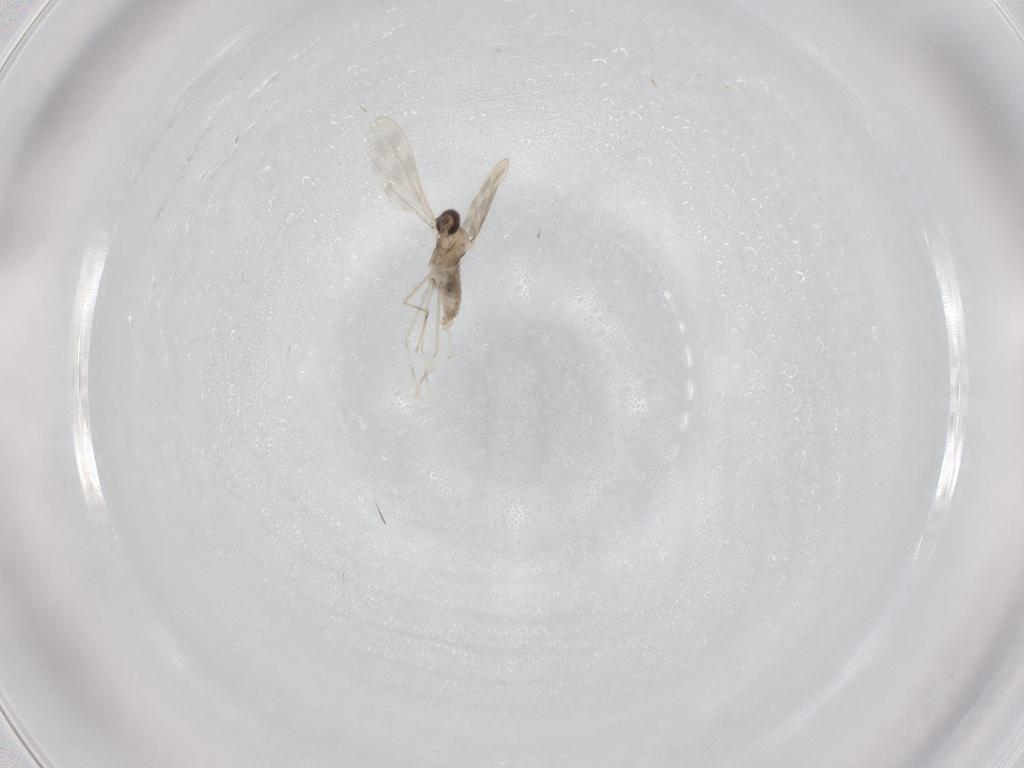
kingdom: Animalia
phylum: Arthropoda
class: Insecta
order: Diptera
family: Cecidomyiidae
